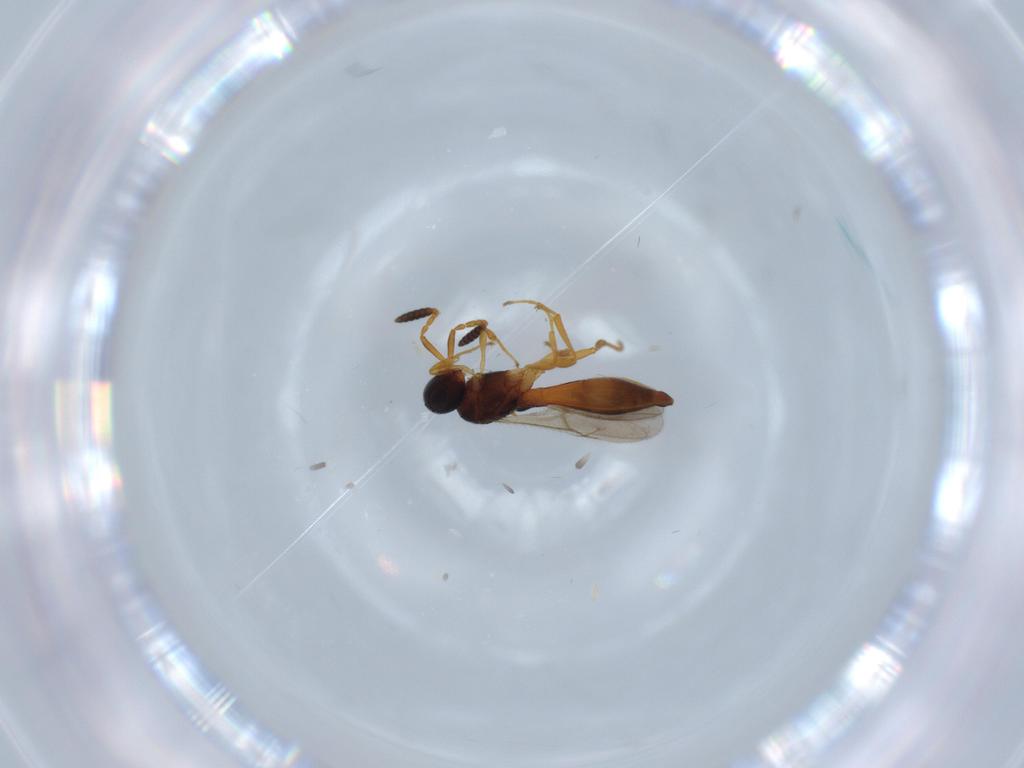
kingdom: Animalia
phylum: Arthropoda
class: Insecta
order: Hymenoptera
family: Scelionidae
